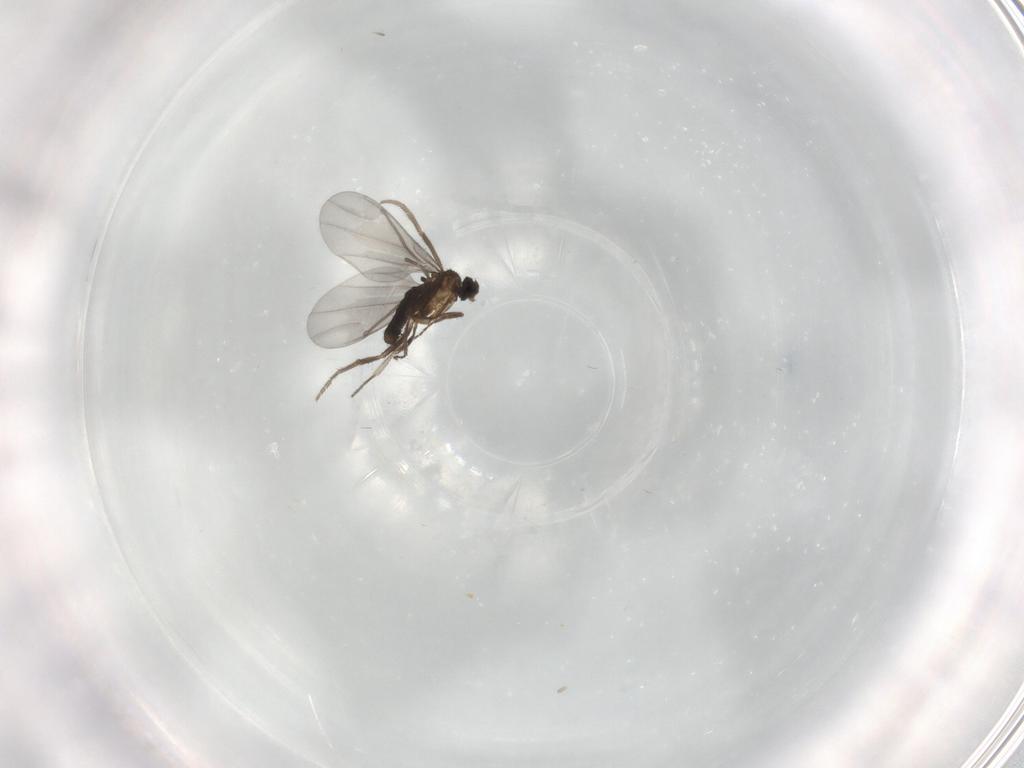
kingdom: Animalia
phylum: Arthropoda
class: Insecta
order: Diptera
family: Phoridae
